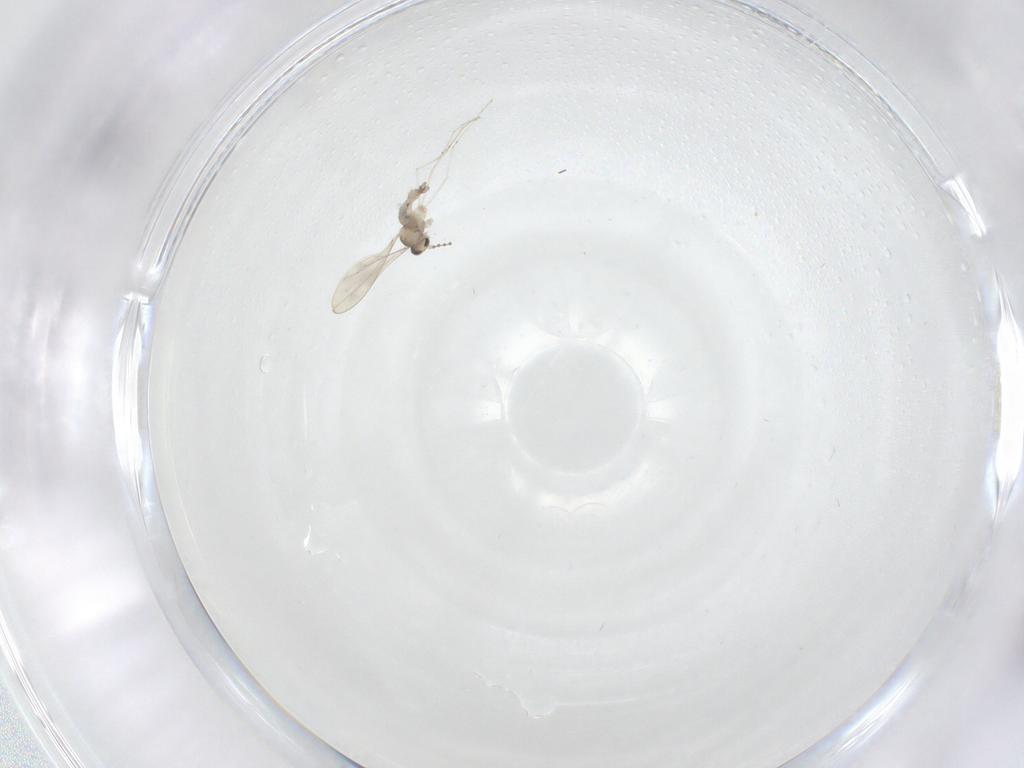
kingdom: Animalia
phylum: Arthropoda
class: Insecta
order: Diptera
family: Cecidomyiidae
